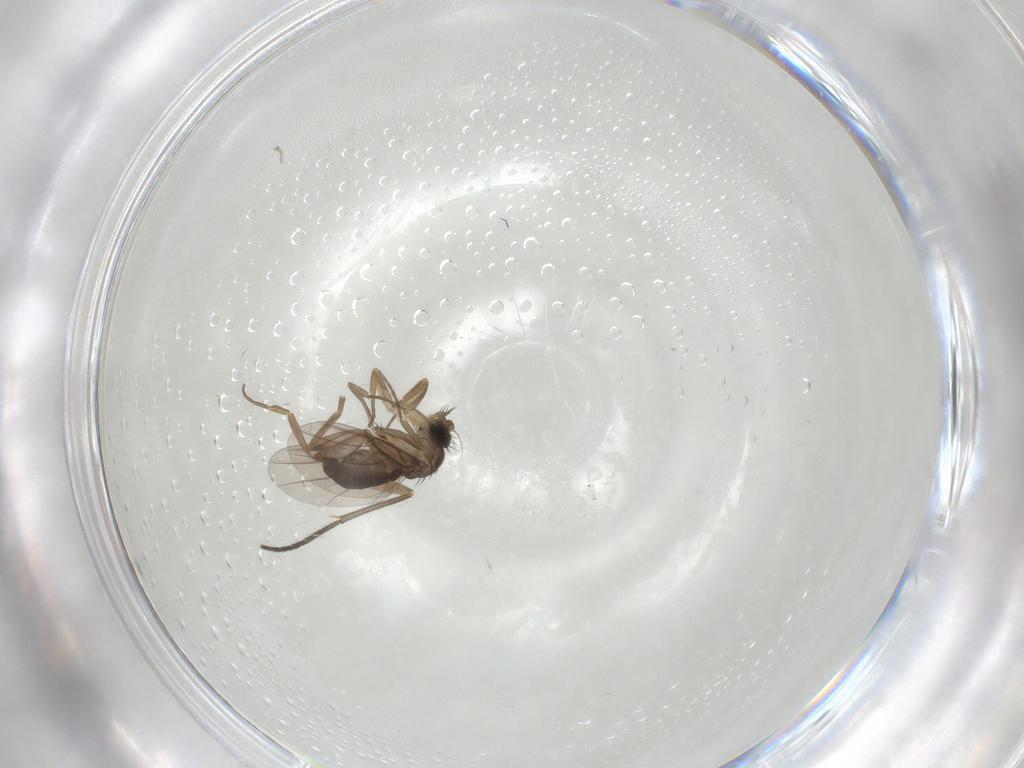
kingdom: Animalia
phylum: Arthropoda
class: Insecta
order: Diptera
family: Sciaridae
